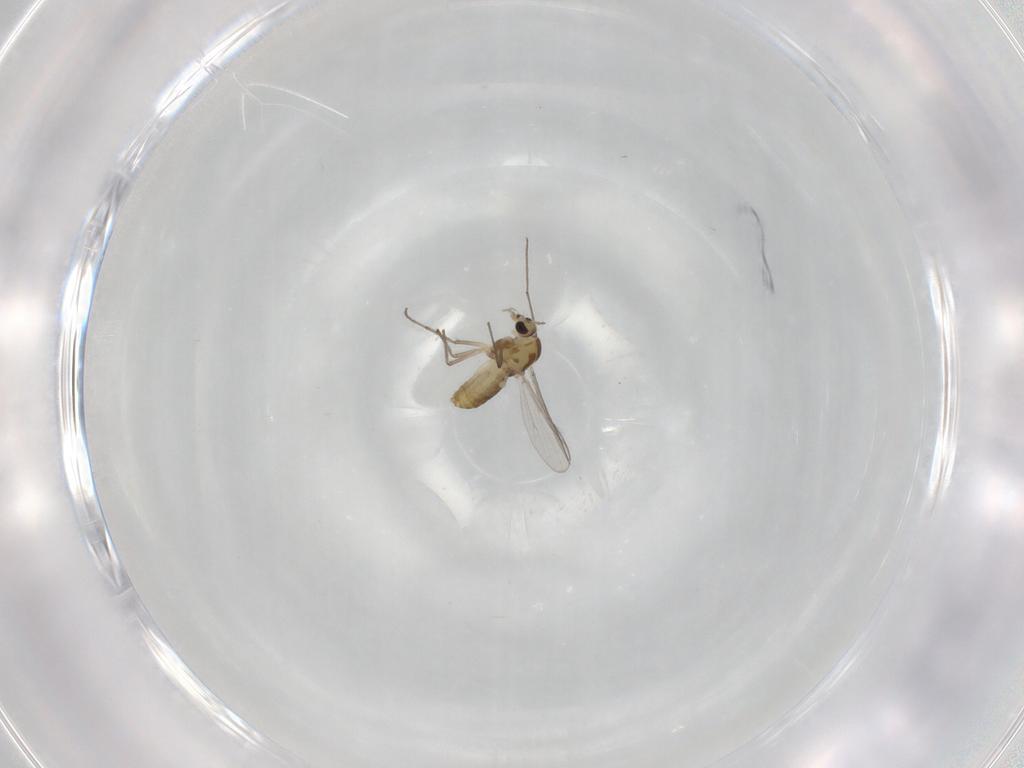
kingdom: Animalia
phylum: Arthropoda
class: Insecta
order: Diptera
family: Chironomidae
